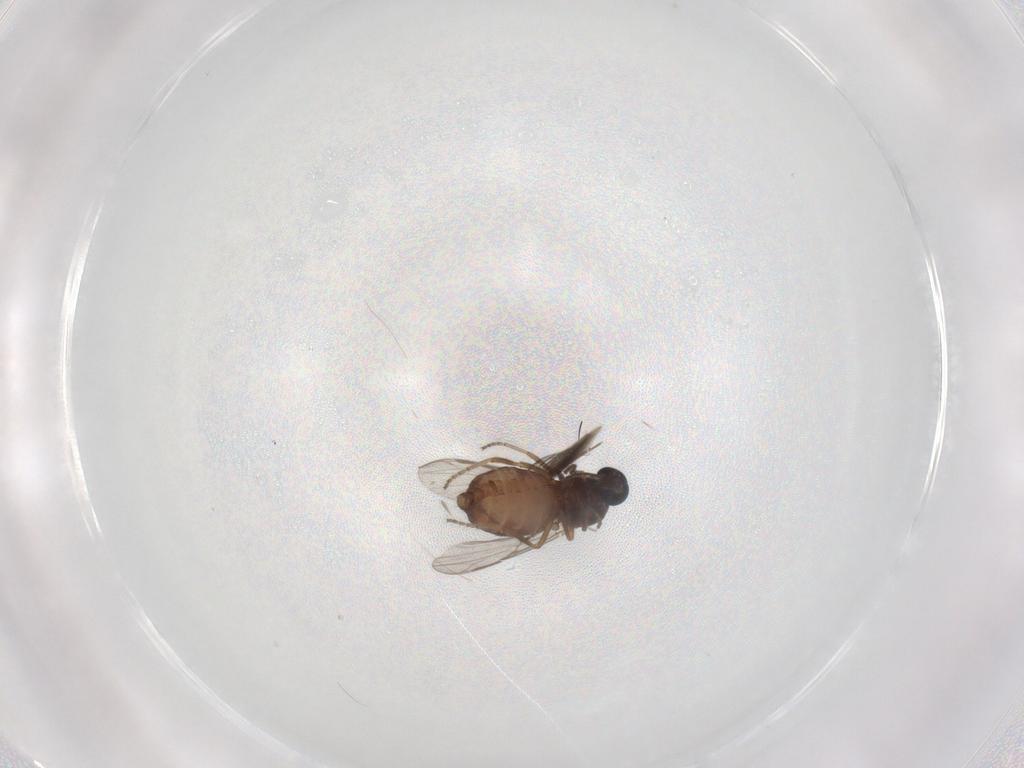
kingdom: Animalia
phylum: Arthropoda
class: Insecta
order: Diptera
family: Ceratopogonidae
